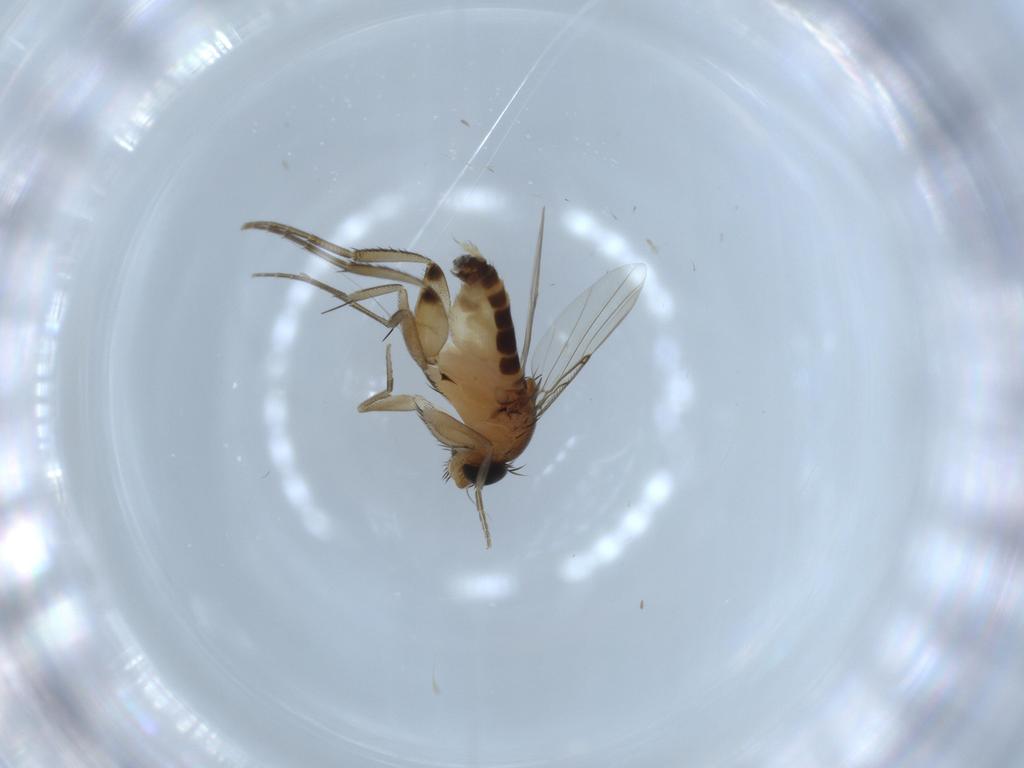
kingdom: Animalia
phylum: Arthropoda
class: Insecta
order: Diptera
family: Phoridae
